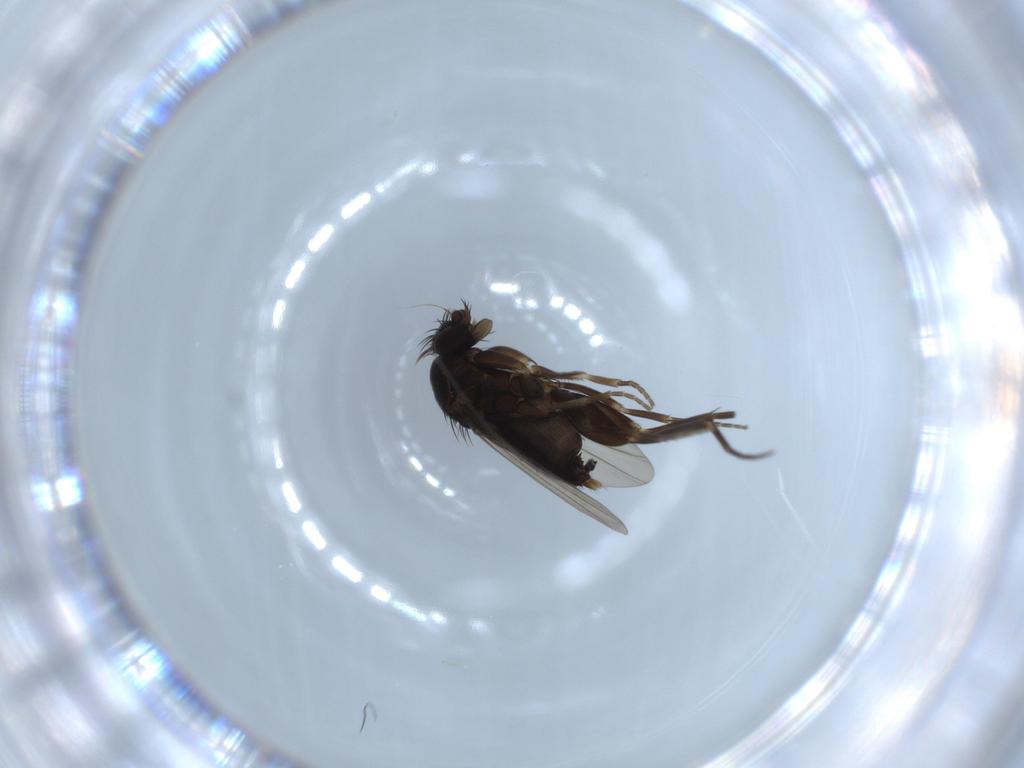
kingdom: Animalia
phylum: Arthropoda
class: Insecta
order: Diptera
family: Phoridae
